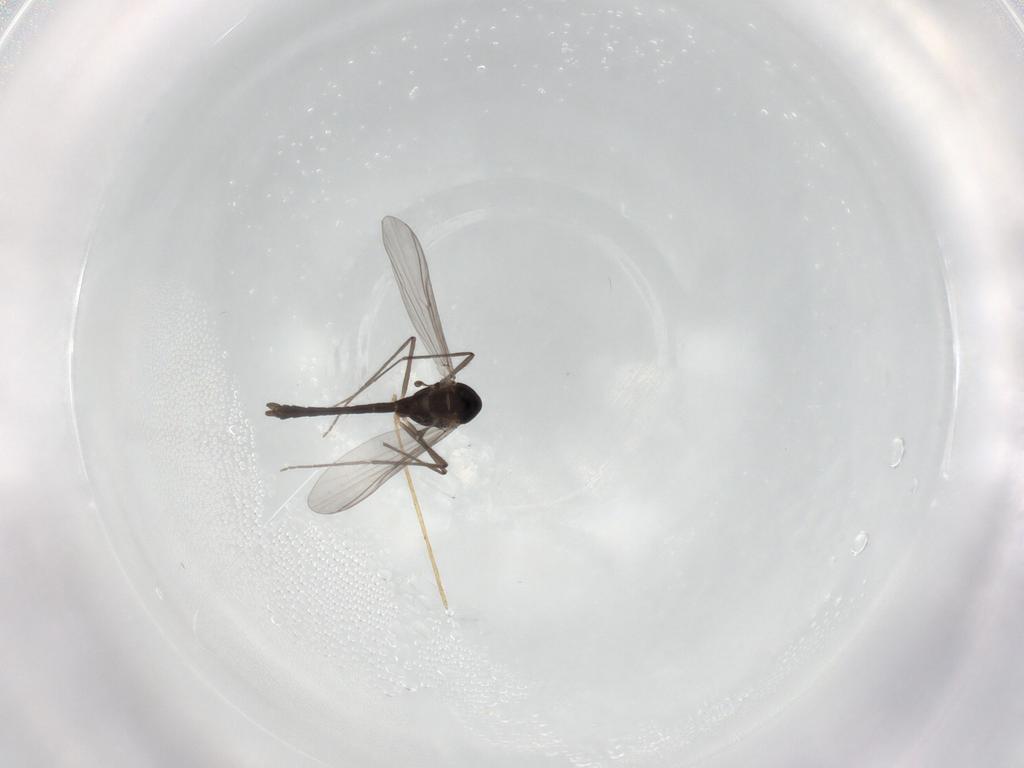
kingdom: Animalia
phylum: Arthropoda
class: Insecta
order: Diptera
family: Chironomidae
